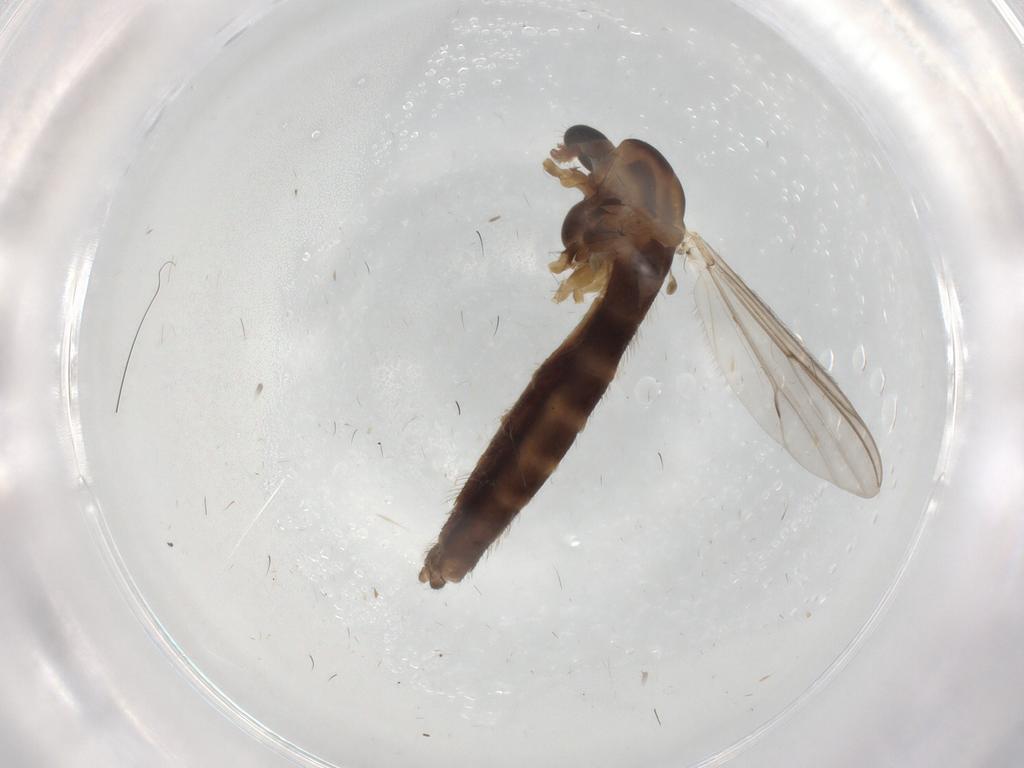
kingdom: Animalia
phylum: Arthropoda
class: Insecta
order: Diptera
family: Chironomidae
